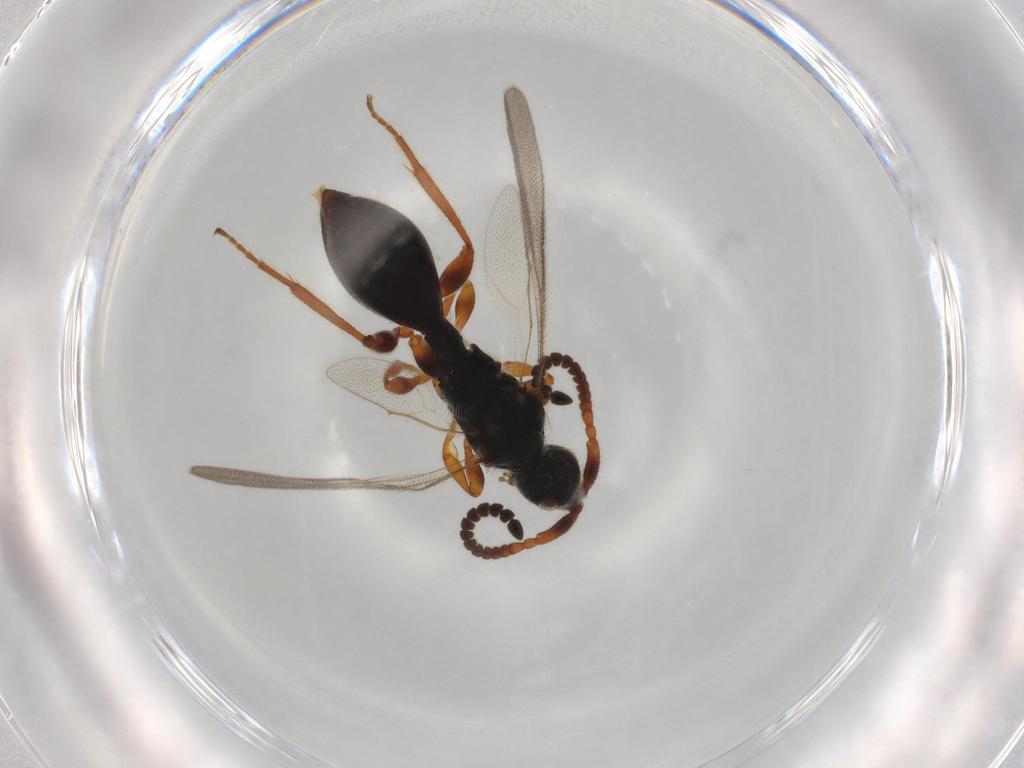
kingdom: Animalia
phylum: Arthropoda
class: Insecta
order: Hymenoptera
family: Diapriidae
